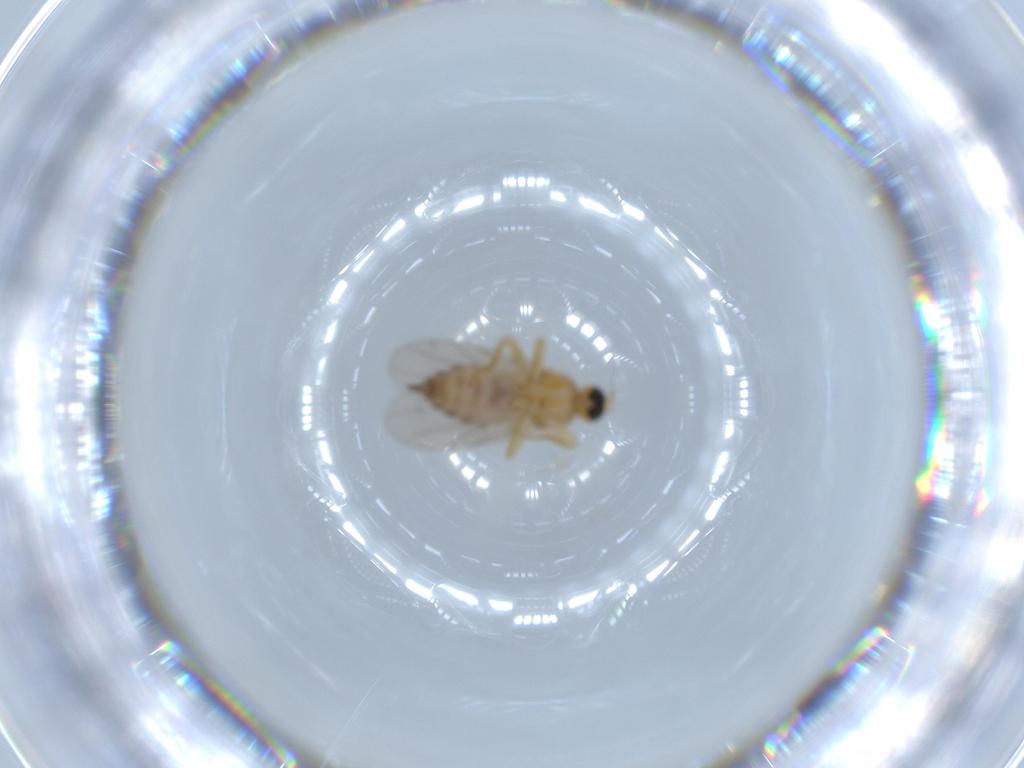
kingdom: Animalia
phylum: Arthropoda
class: Insecta
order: Diptera
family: Hybotidae
